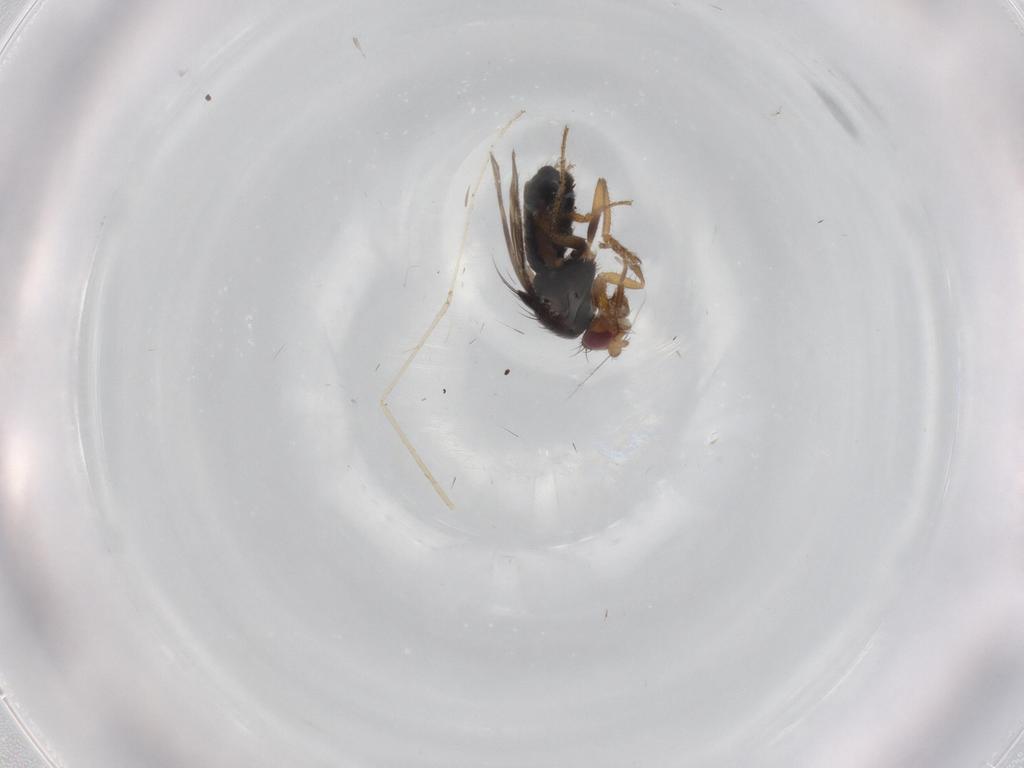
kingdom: Animalia
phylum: Arthropoda
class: Insecta
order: Diptera
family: Sphaeroceridae
